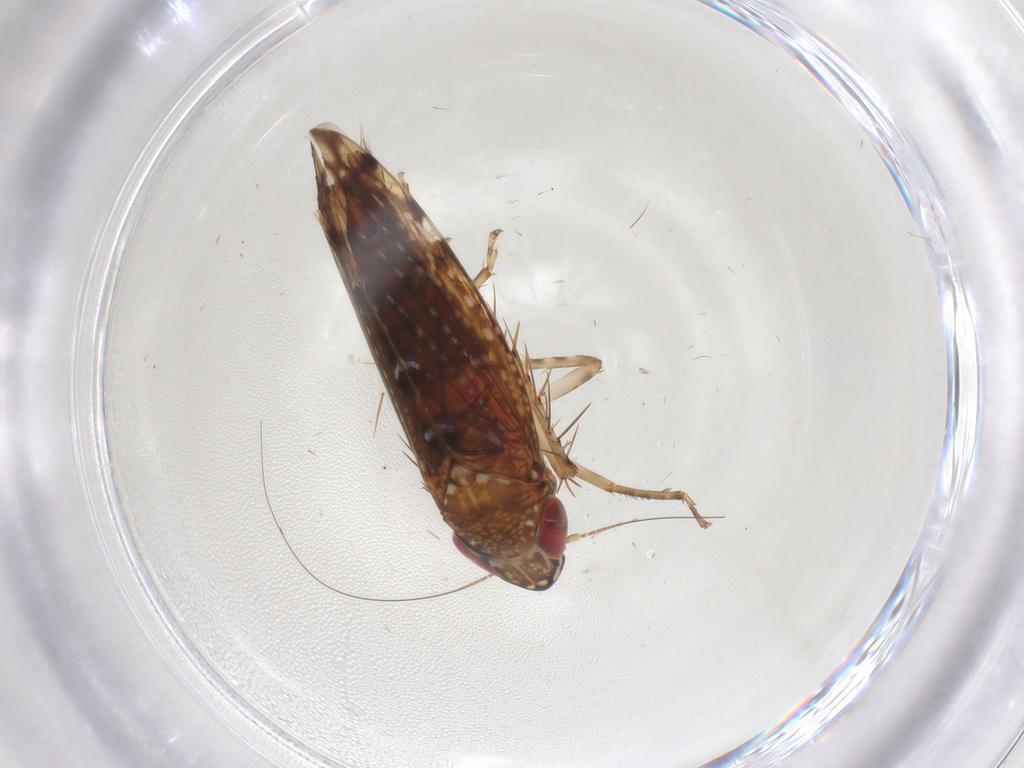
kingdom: Animalia
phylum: Arthropoda
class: Insecta
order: Hemiptera
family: Cicadellidae
